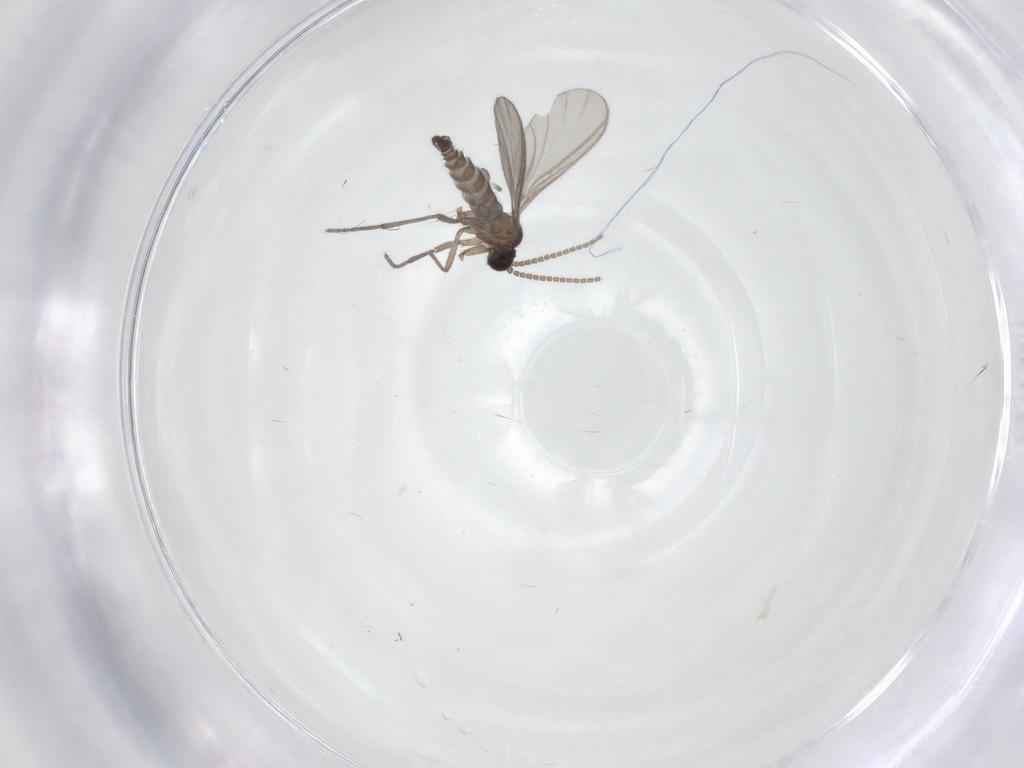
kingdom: Animalia
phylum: Arthropoda
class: Insecta
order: Diptera
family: Sciaridae
